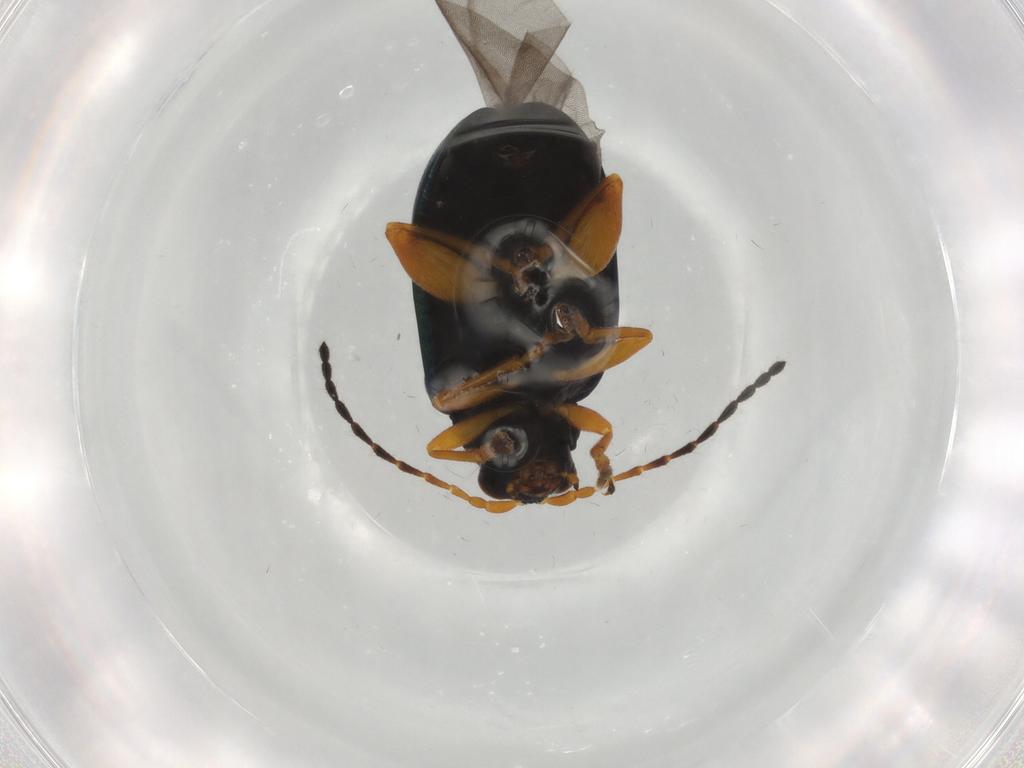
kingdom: Animalia
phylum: Arthropoda
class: Insecta
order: Coleoptera
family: Chrysomelidae
